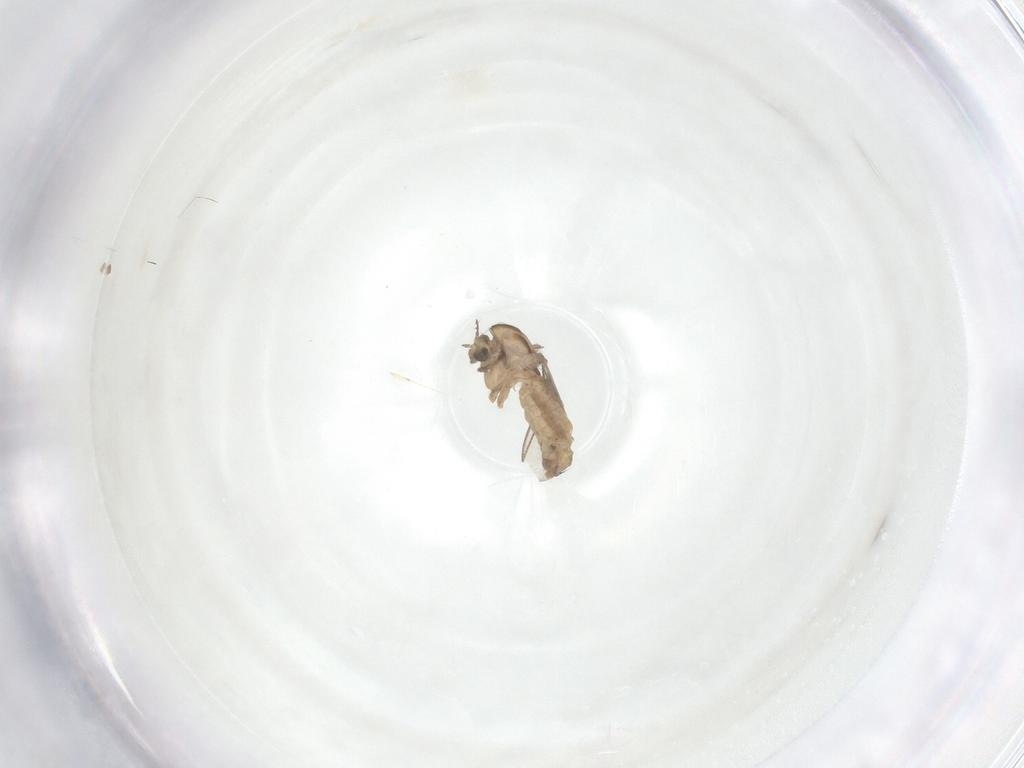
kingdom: Animalia
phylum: Arthropoda
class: Insecta
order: Diptera
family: Chironomidae
